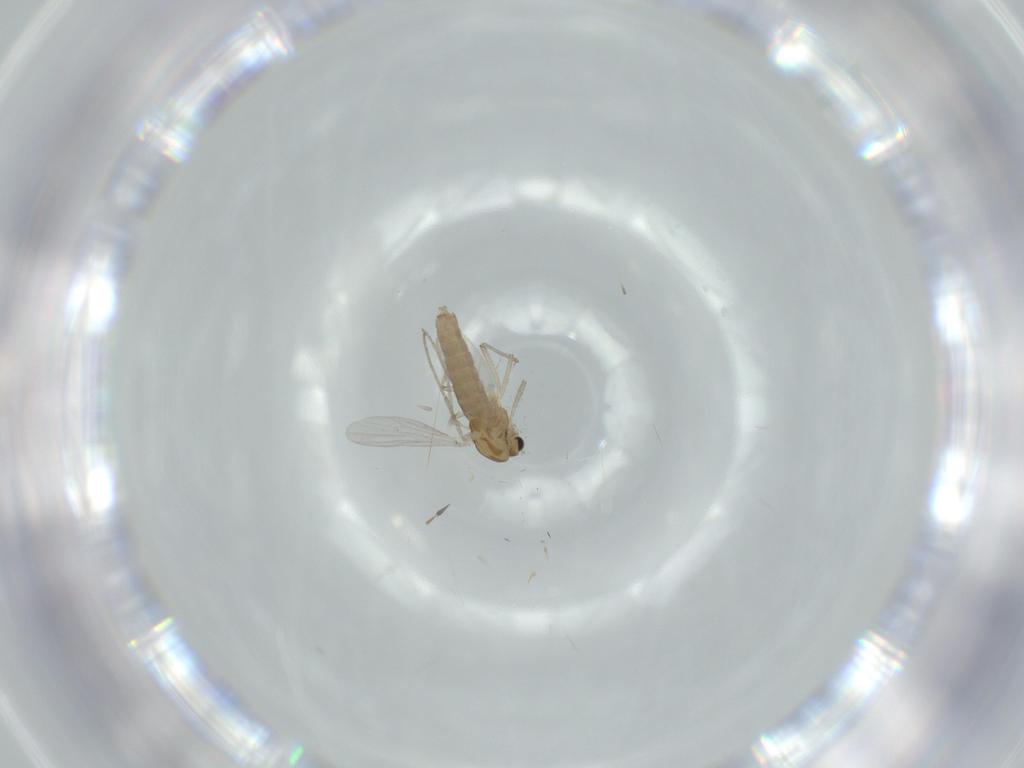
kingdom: Animalia
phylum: Arthropoda
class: Insecta
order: Diptera
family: Chironomidae
